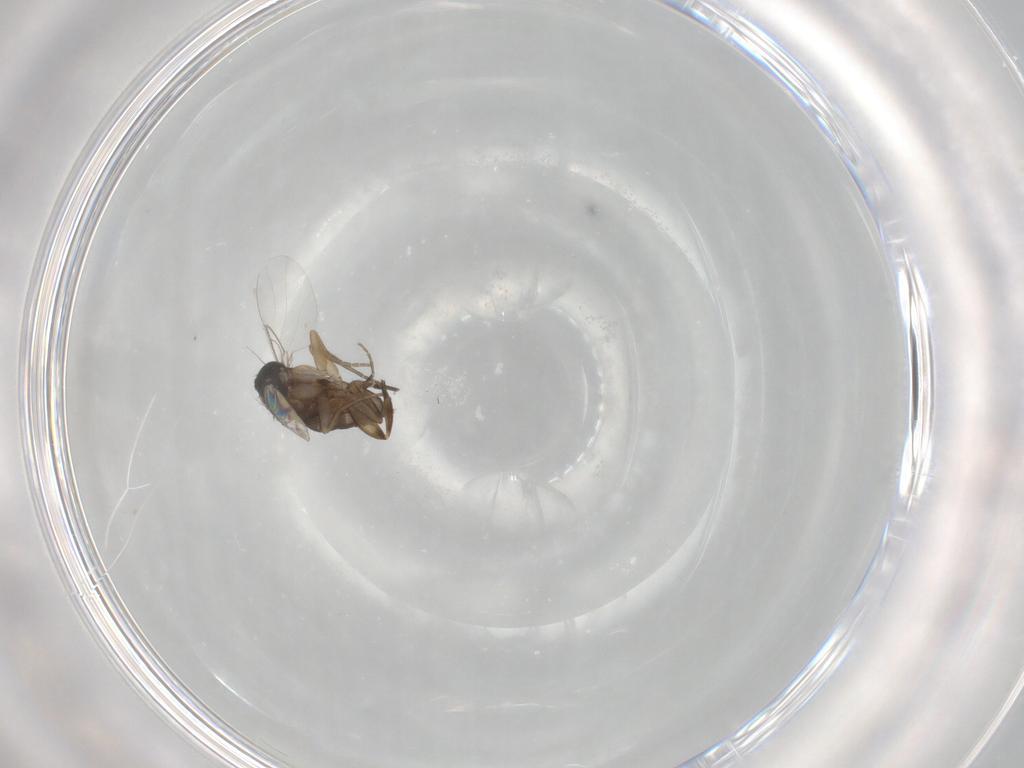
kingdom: Animalia
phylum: Arthropoda
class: Insecta
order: Diptera
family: Phoridae
